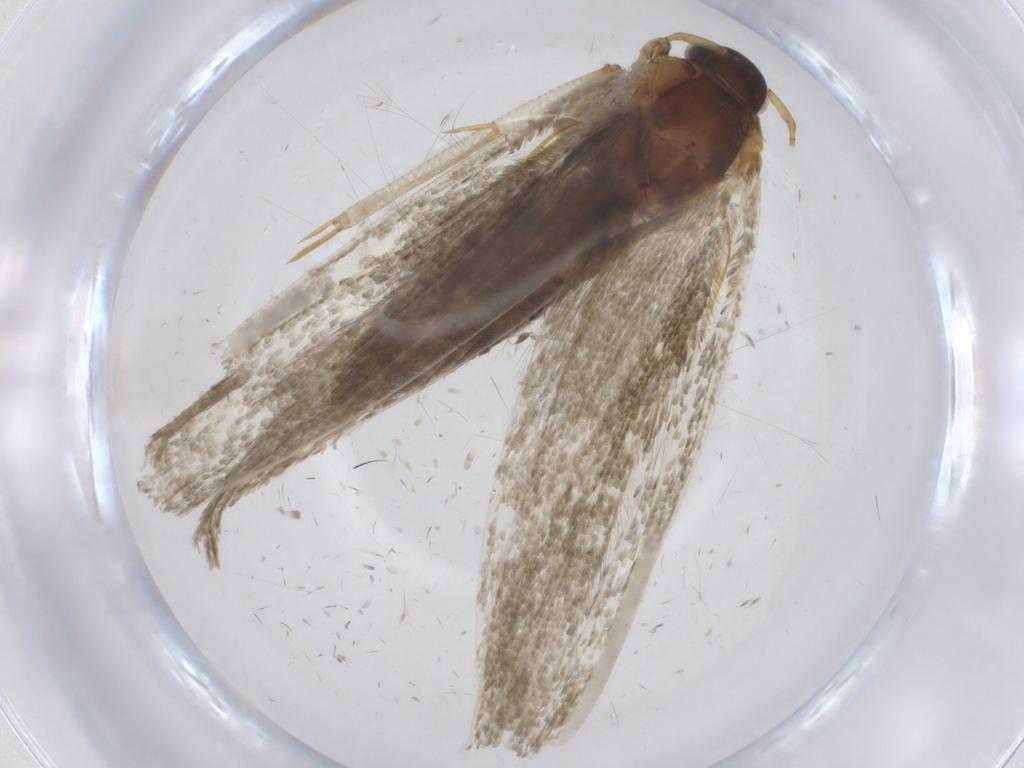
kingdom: Animalia
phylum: Arthropoda
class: Insecta
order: Lepidoptera
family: Blastobasidae
